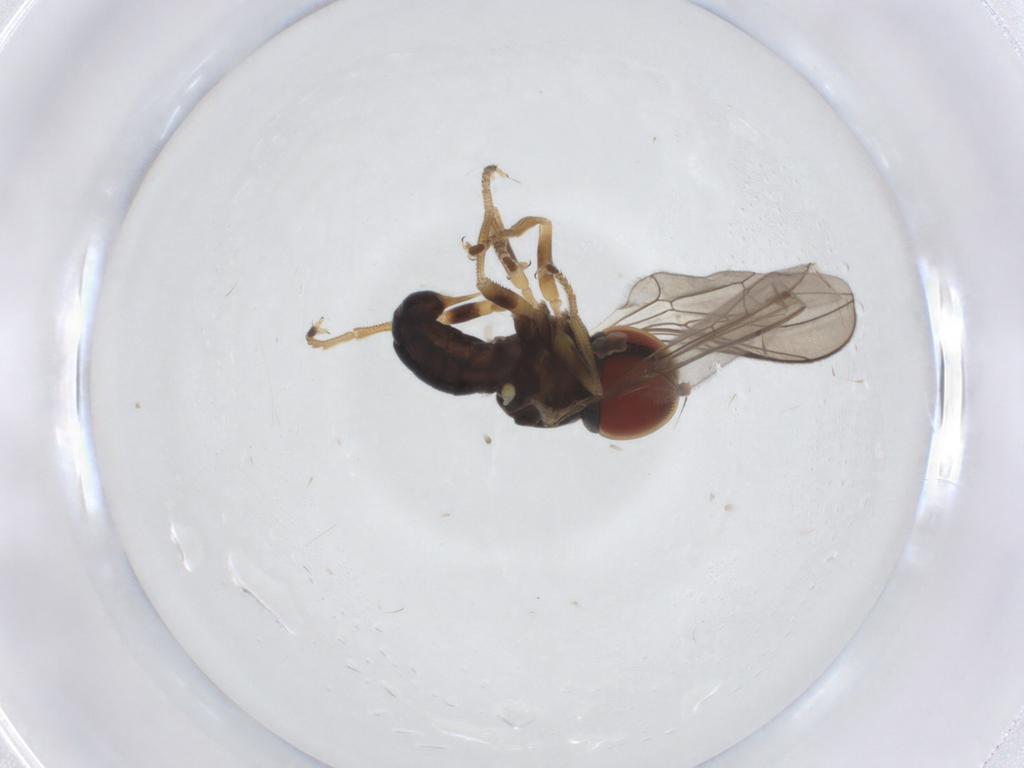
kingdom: Animalia
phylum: Arthropoda
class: Insecta
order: Diptera
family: Pipunculidae
